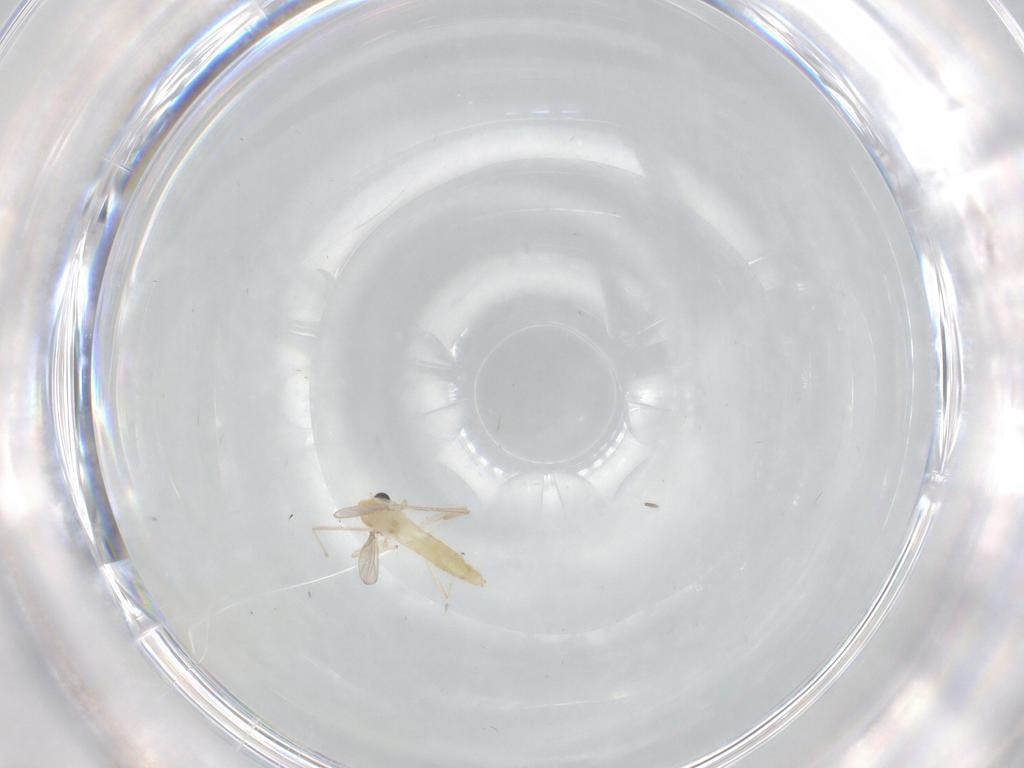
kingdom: Animalia
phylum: Arthropoda
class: Insecta
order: Diptera
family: Chironomidae
